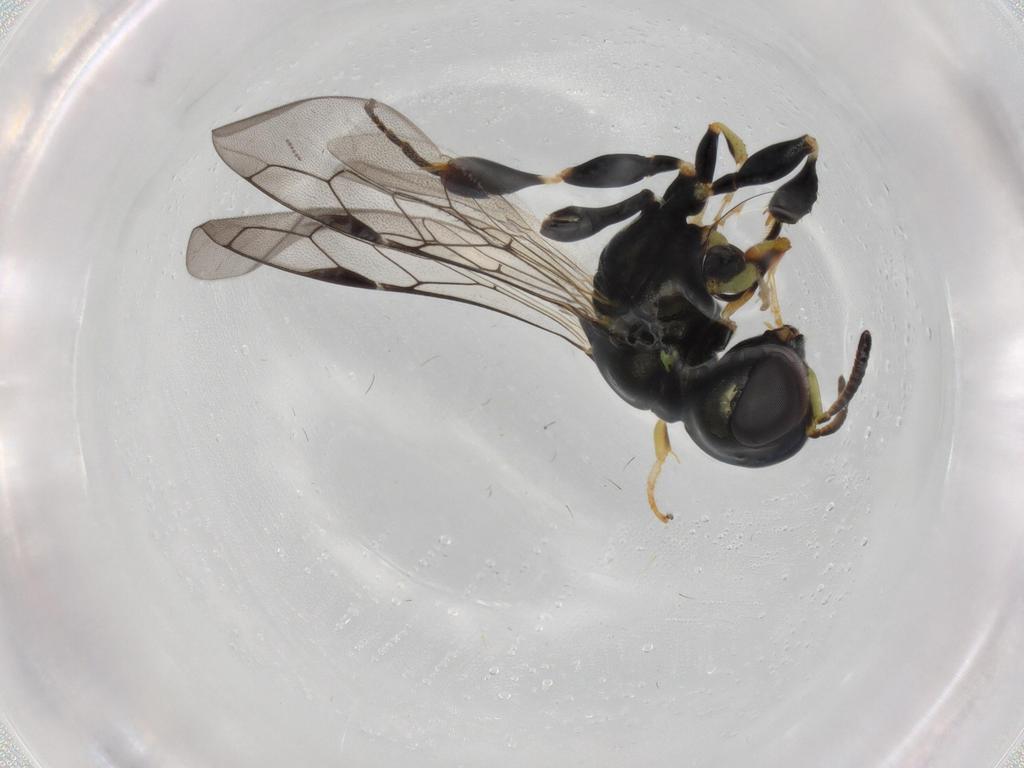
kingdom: Animalia
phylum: Arthropoda
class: Insecta
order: Hymenoptera
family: Crabronidae
